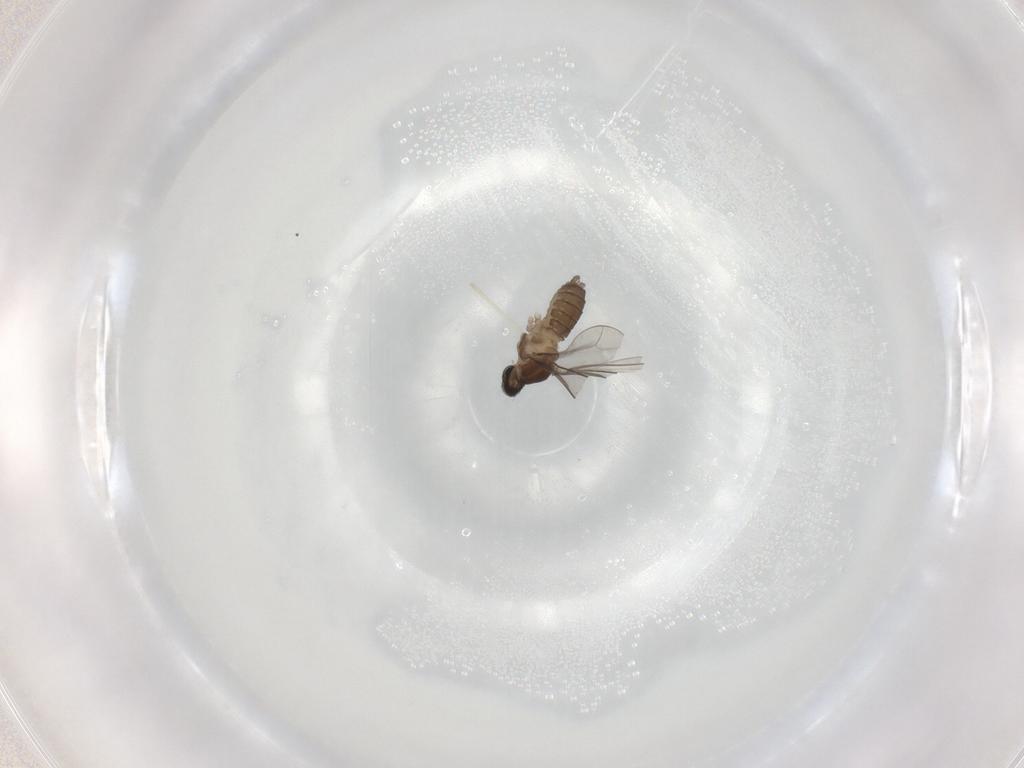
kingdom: Animalia
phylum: Arthropoda
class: Insecta
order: Diptera
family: Cecidomyiidae
